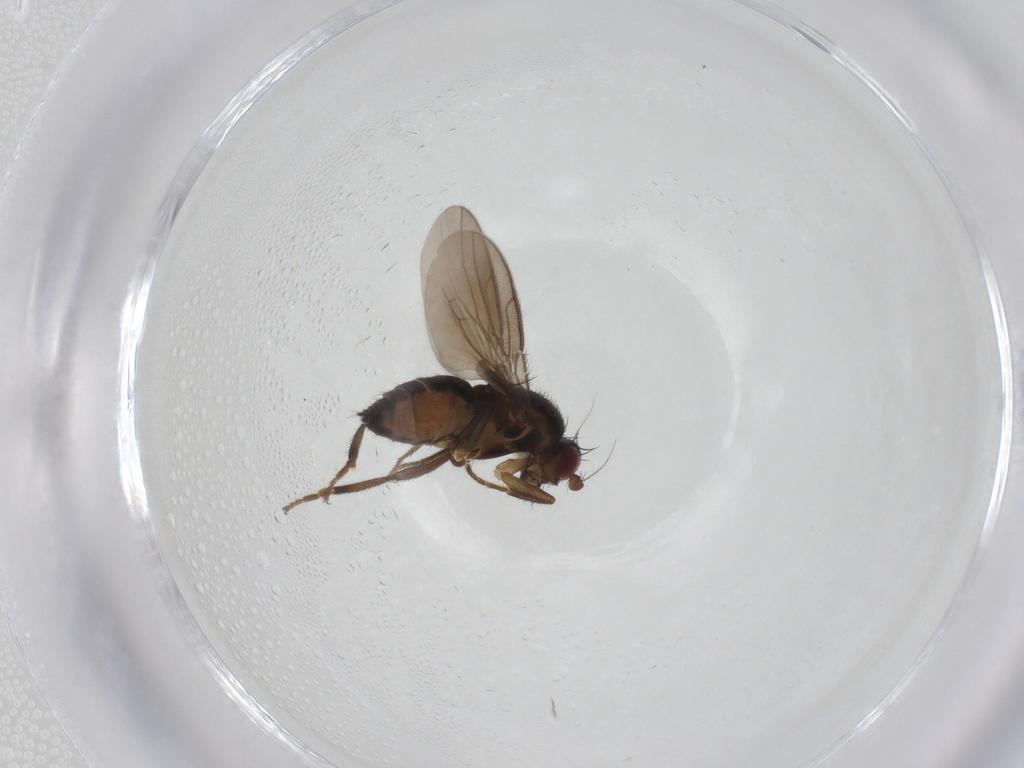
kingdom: Animalia
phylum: Arthropoda
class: Insecta
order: Diptera
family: Sphaeroceridae
